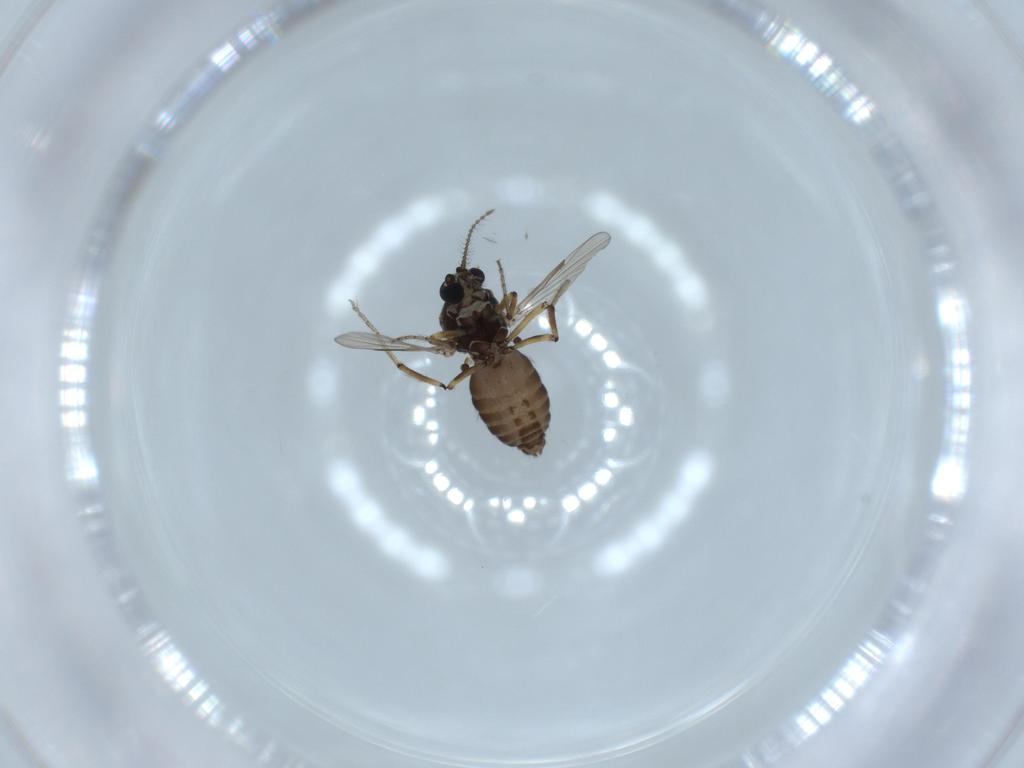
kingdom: Animalia
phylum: Arthropoda
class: Insecta
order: Diptera
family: Ceratopogonidae
